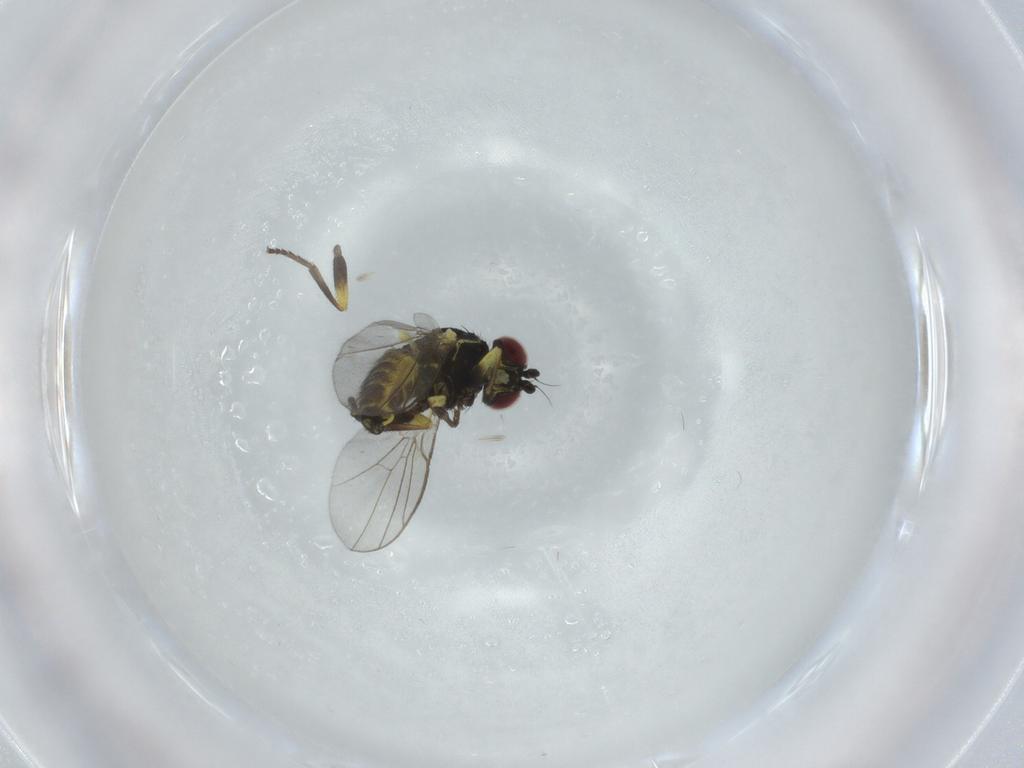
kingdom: Animalia
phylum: Arthropoda
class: Insecta
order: Diptera
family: Agromyzidae
